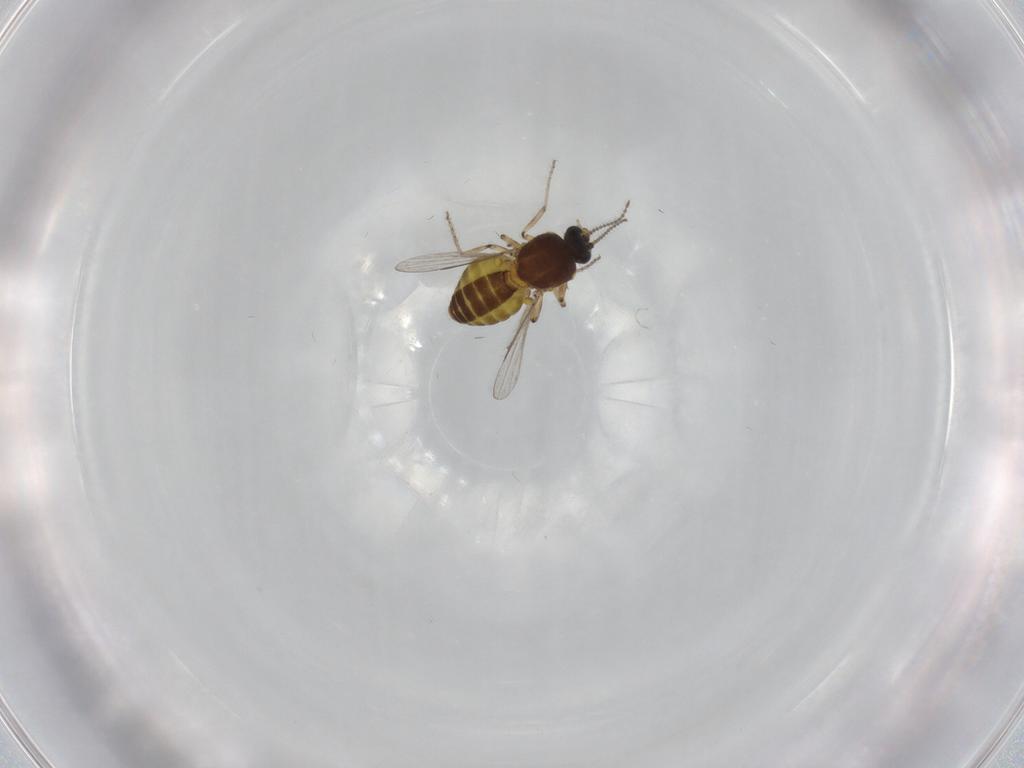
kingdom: Animalia
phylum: Arthropoda
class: Insecta
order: Diptera
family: Ceratopogonidae
